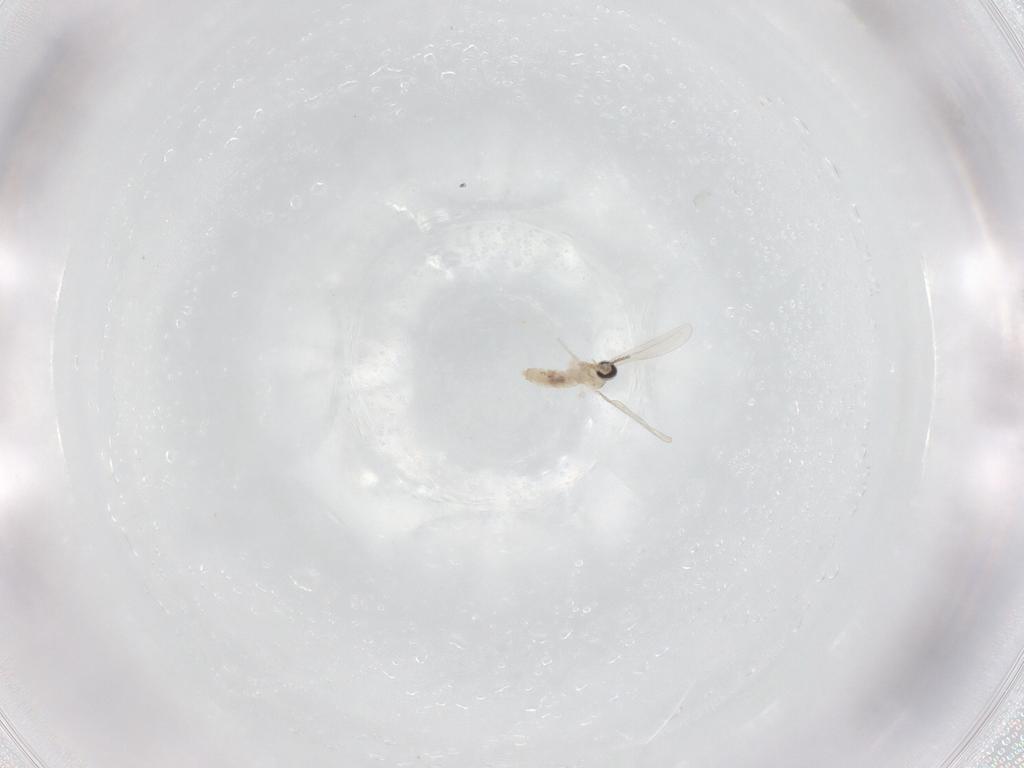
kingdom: Animalia
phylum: Arthropoda
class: Insecta
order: Diptera
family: Cecidomyiidae
